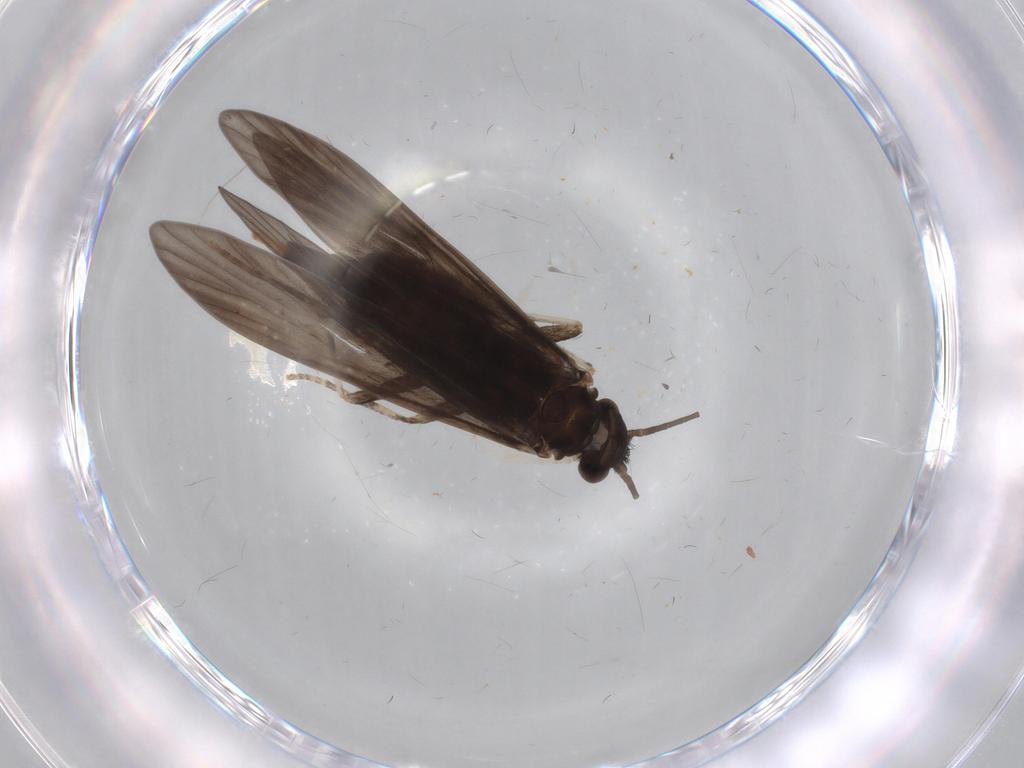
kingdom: Animalia
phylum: Arthropoda
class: Insecta
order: Trichoptera
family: Xiphocentronidae
